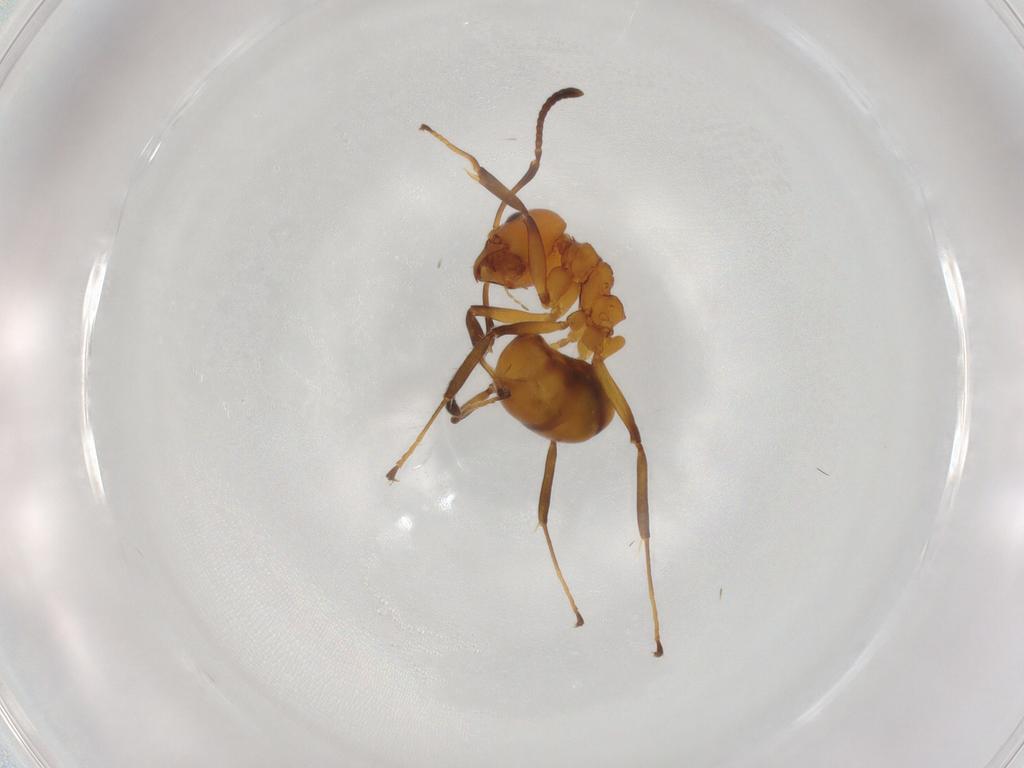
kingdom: Animalia
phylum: Arthropoda
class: Insecta
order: Hymenoptera
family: Formicidae
